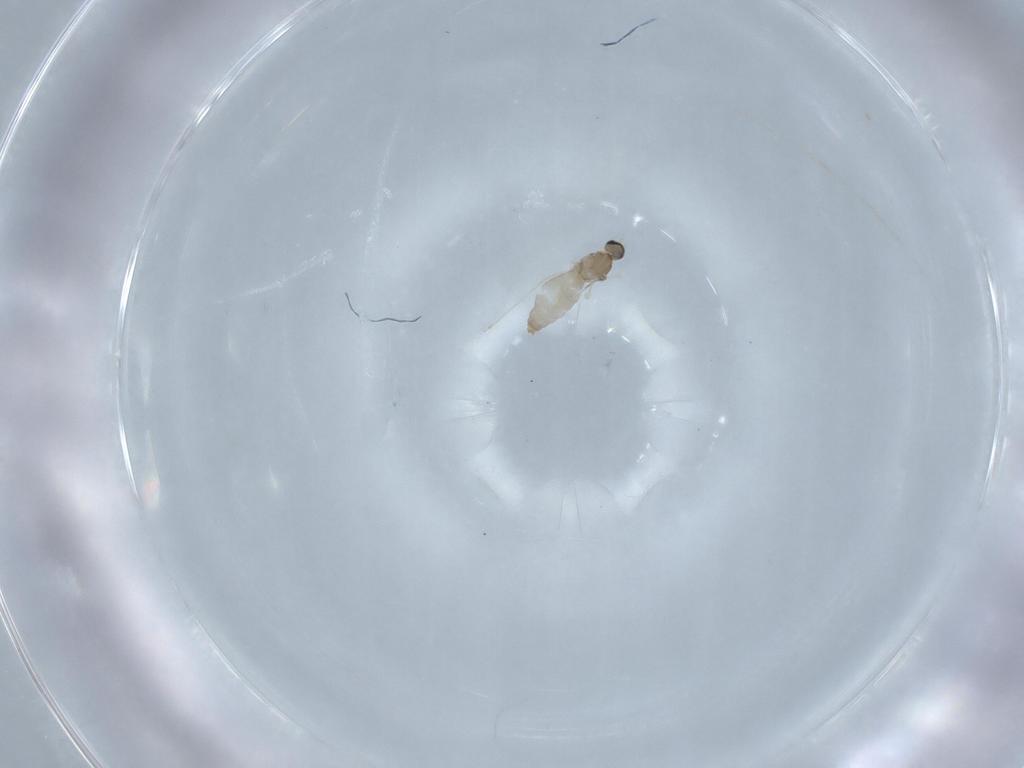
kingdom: Animalia
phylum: Arthropoda
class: Insecta
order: Diptera
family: Cecidomyiidae
